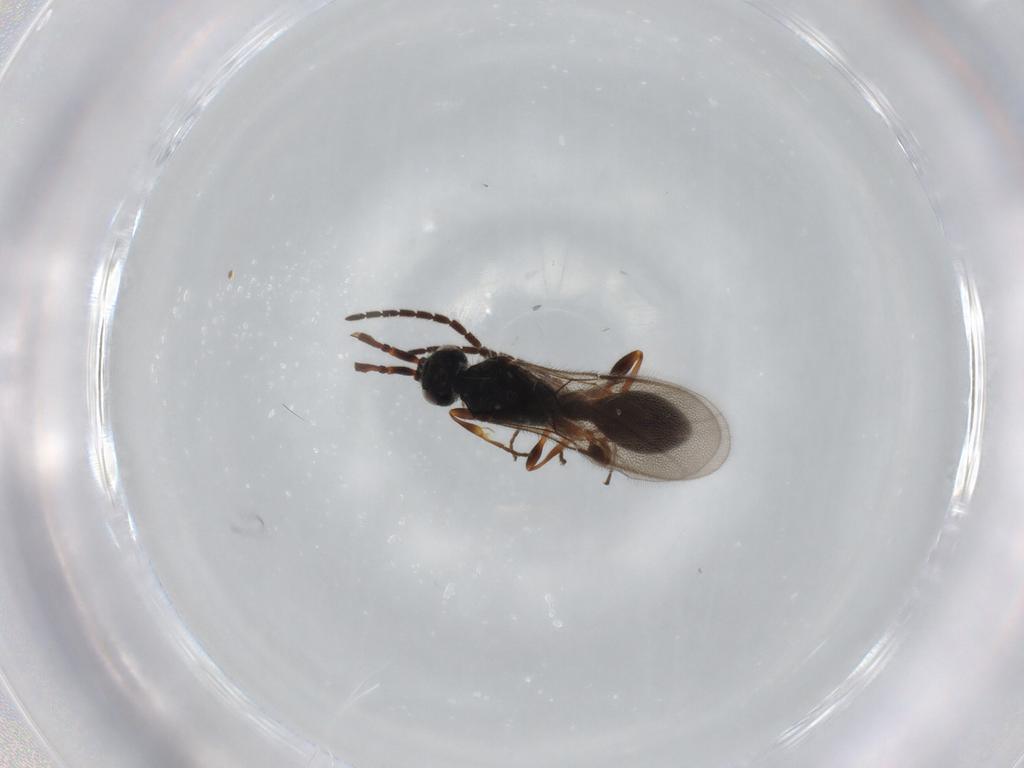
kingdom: Animalia
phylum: Arthropoda
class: Insecta
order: Hymenoptera
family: Diapriidae
